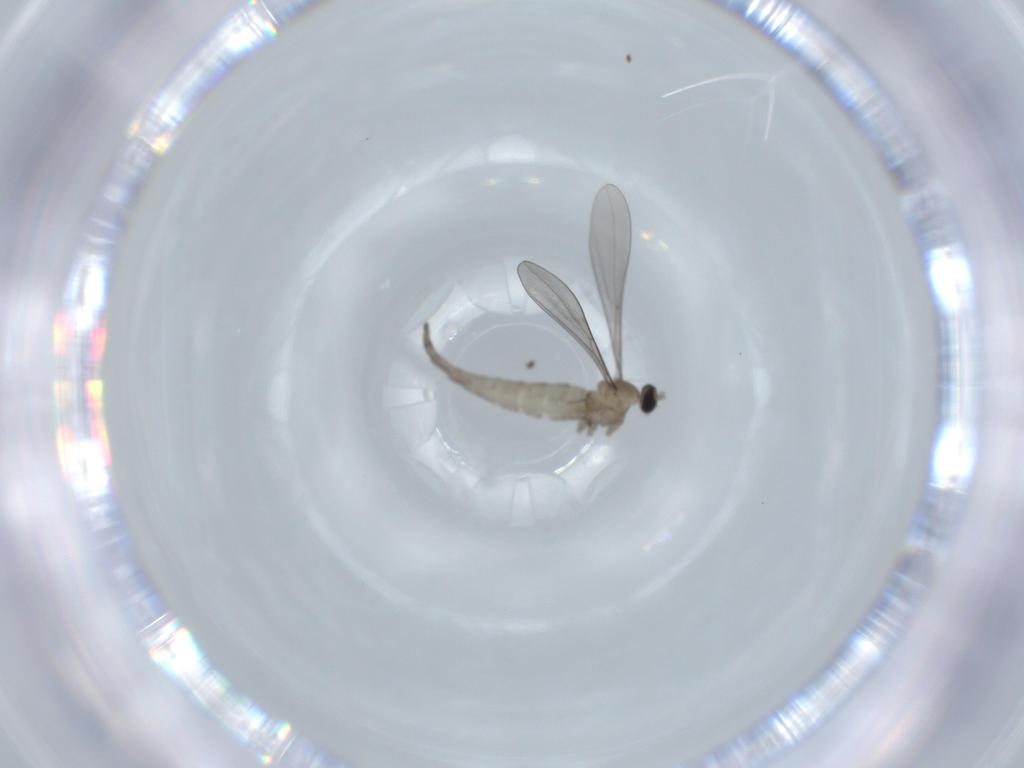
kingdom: Animalia
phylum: Arthropoda
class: Insecta
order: Diptera
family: Cecidomyiidae
